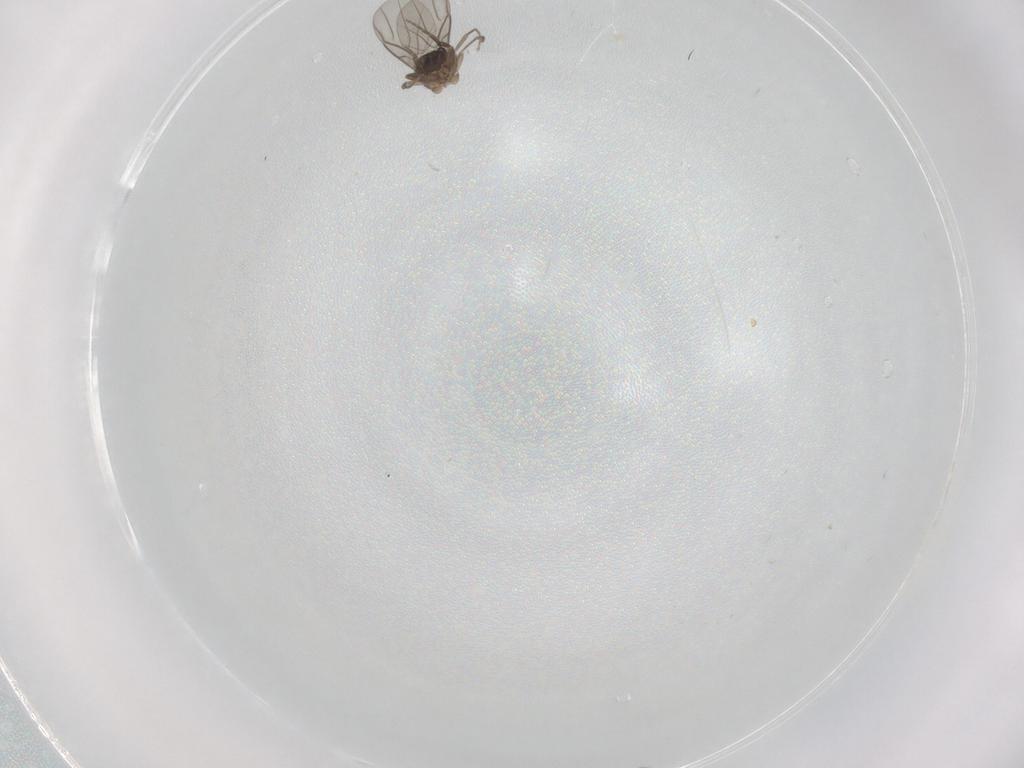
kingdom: Animalia
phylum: Arthropoda
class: Insecta
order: Diptera
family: Chironomidae
